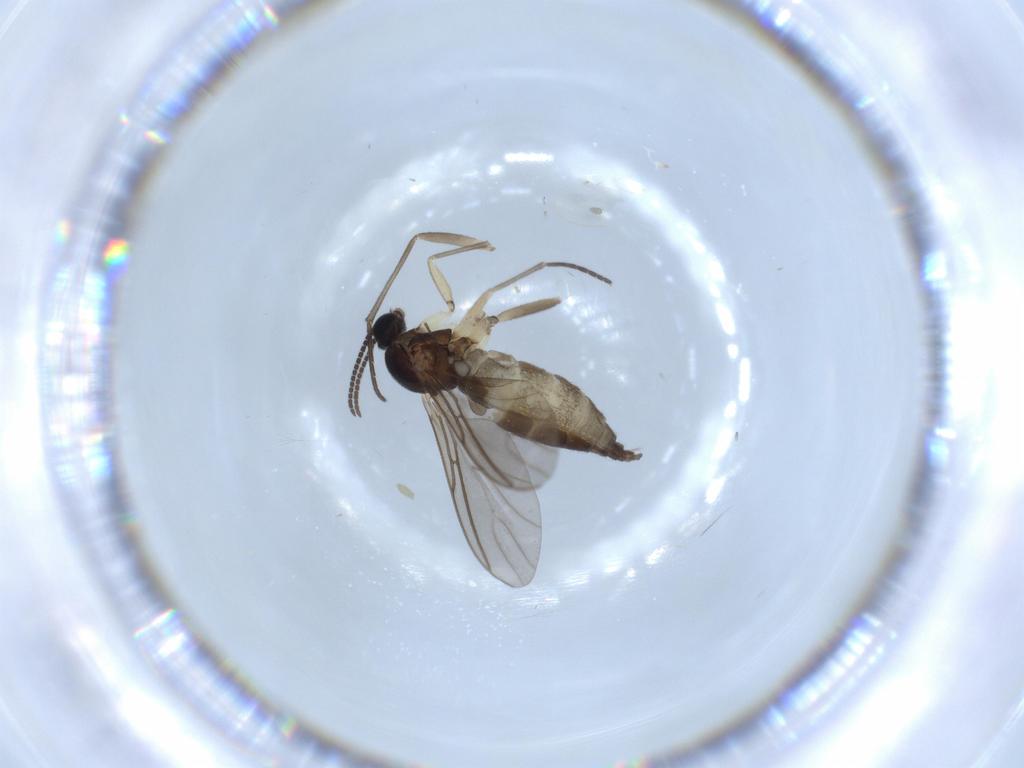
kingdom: Animalia
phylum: Arthropoda
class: Insecta
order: Diptera
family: Sciaridae
